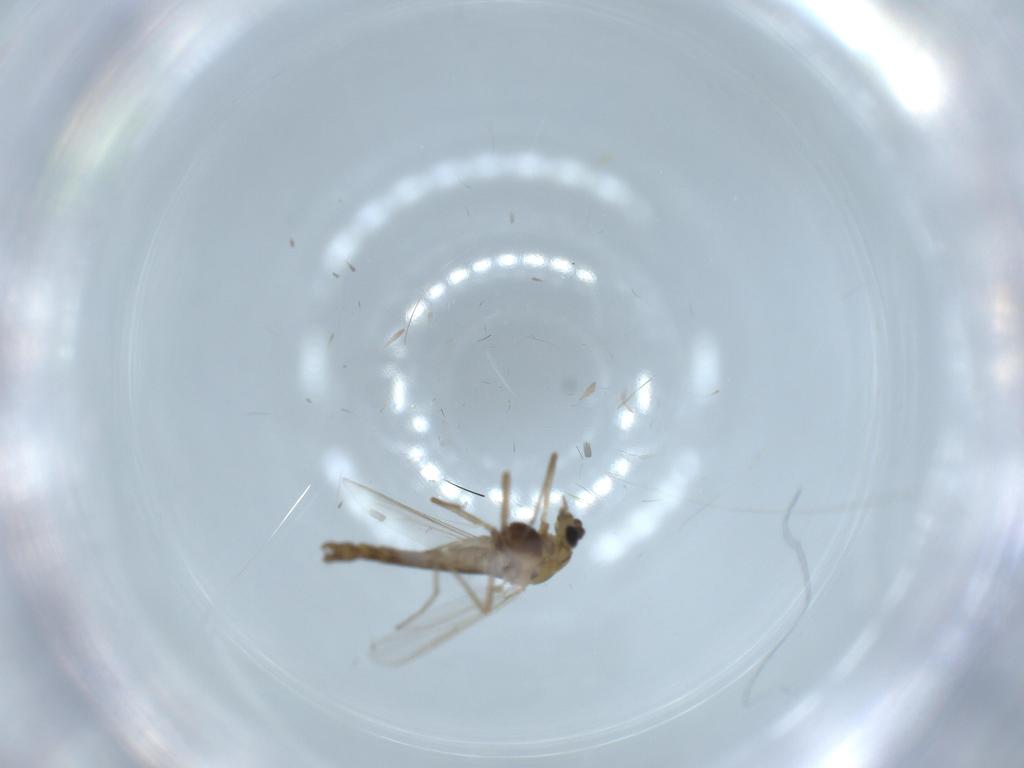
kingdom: Animalia
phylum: Arthropoda
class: Insecta
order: Diptera
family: Chironomidae
